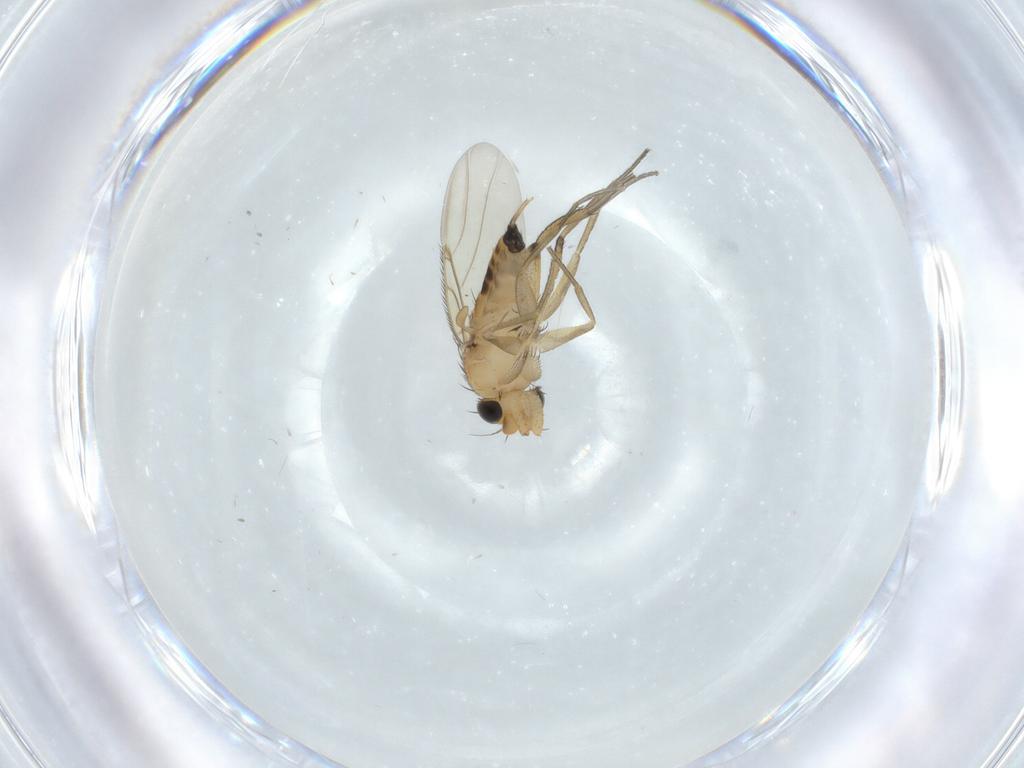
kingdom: Animalia
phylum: Arthropoda
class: Insecta
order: Diptera
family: Phoridae
